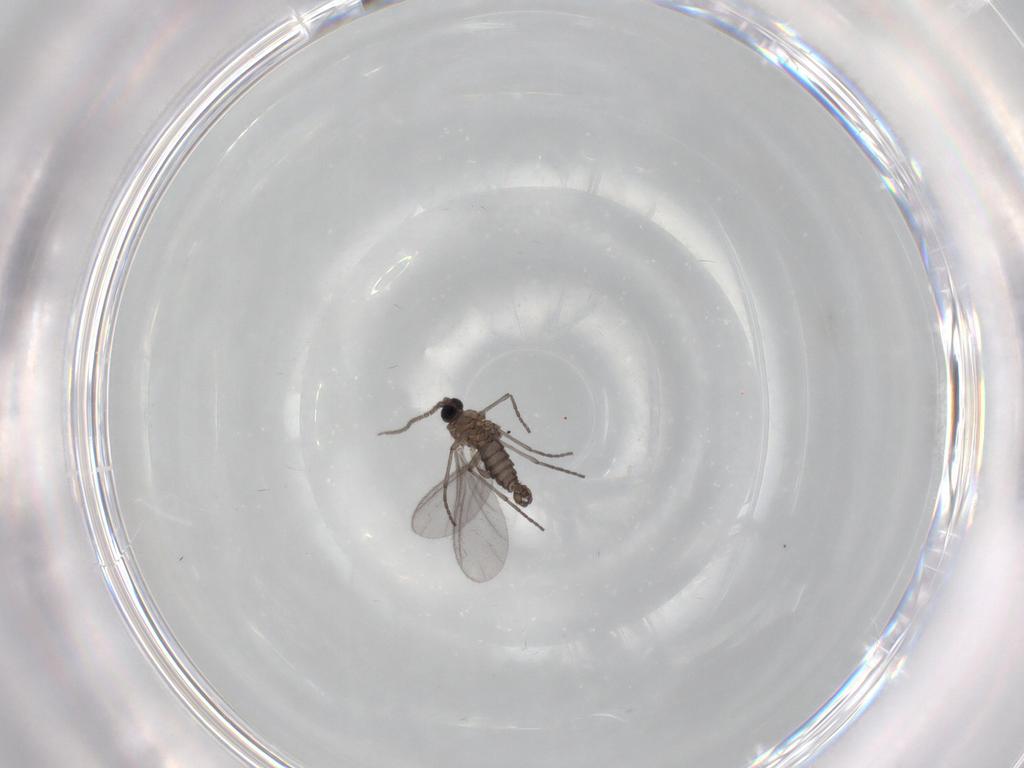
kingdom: Animalia
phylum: Arthropoda
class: Insecta
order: Diptera
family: Sciaridae
